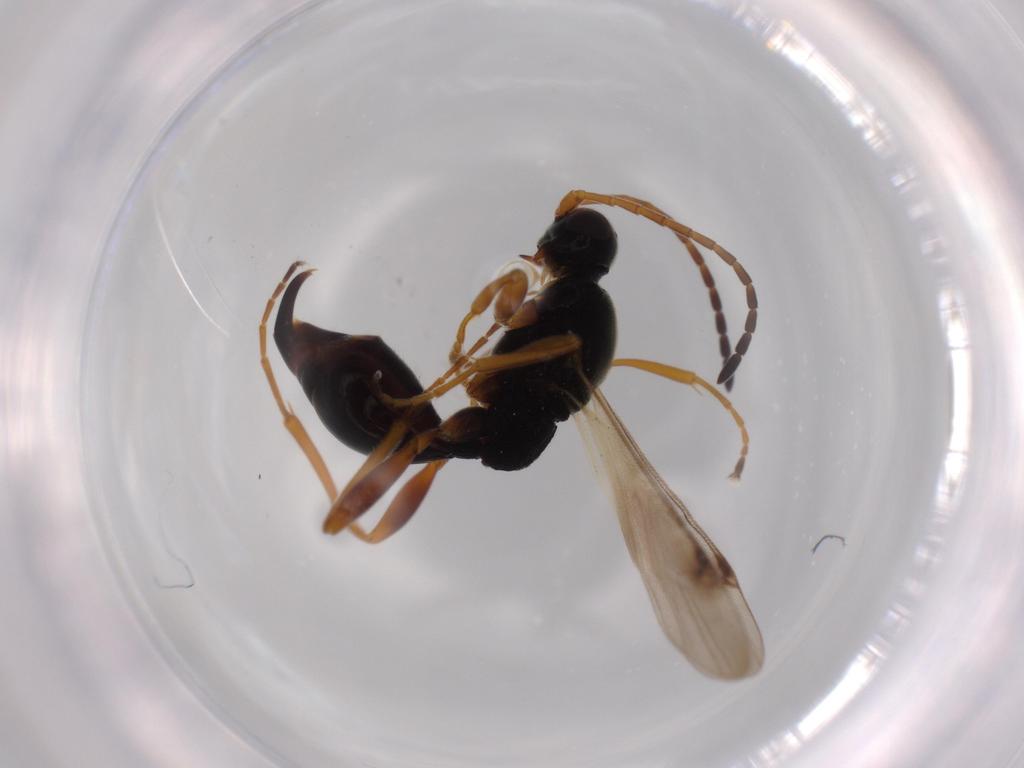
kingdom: Animalia
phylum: Arthropoda
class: Insecta
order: Hymenoptera
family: Proctotrupidae
